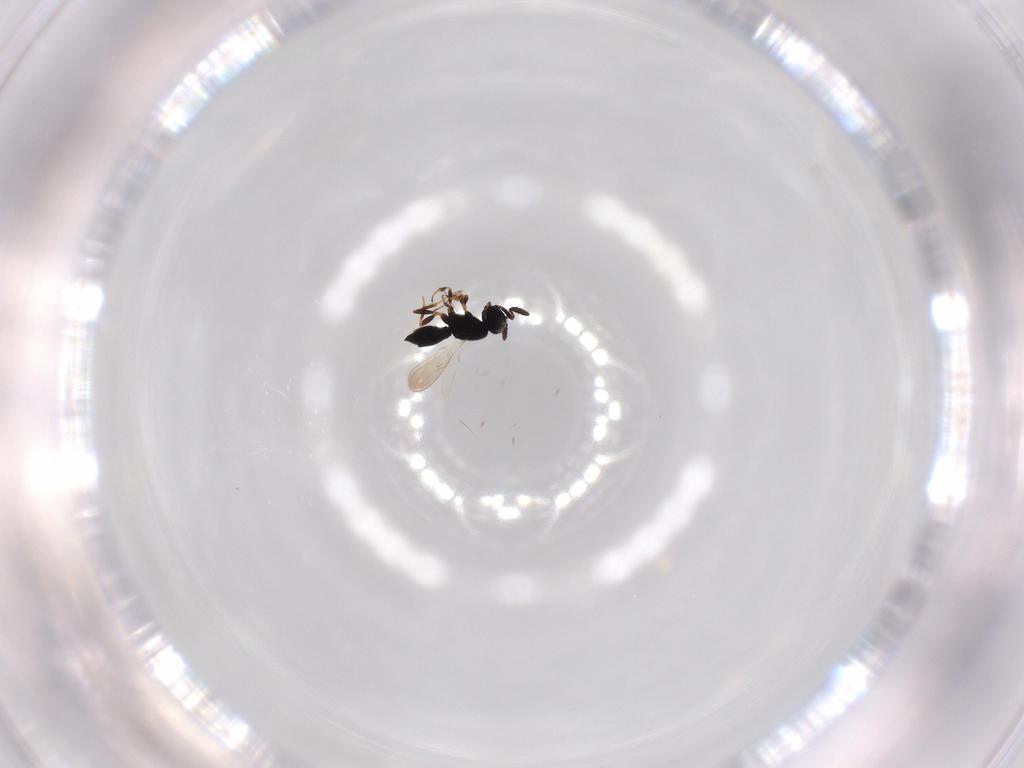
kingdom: Animalia
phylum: Arthropoda
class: Insecta
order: Hymenoptera
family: Scelionidae
